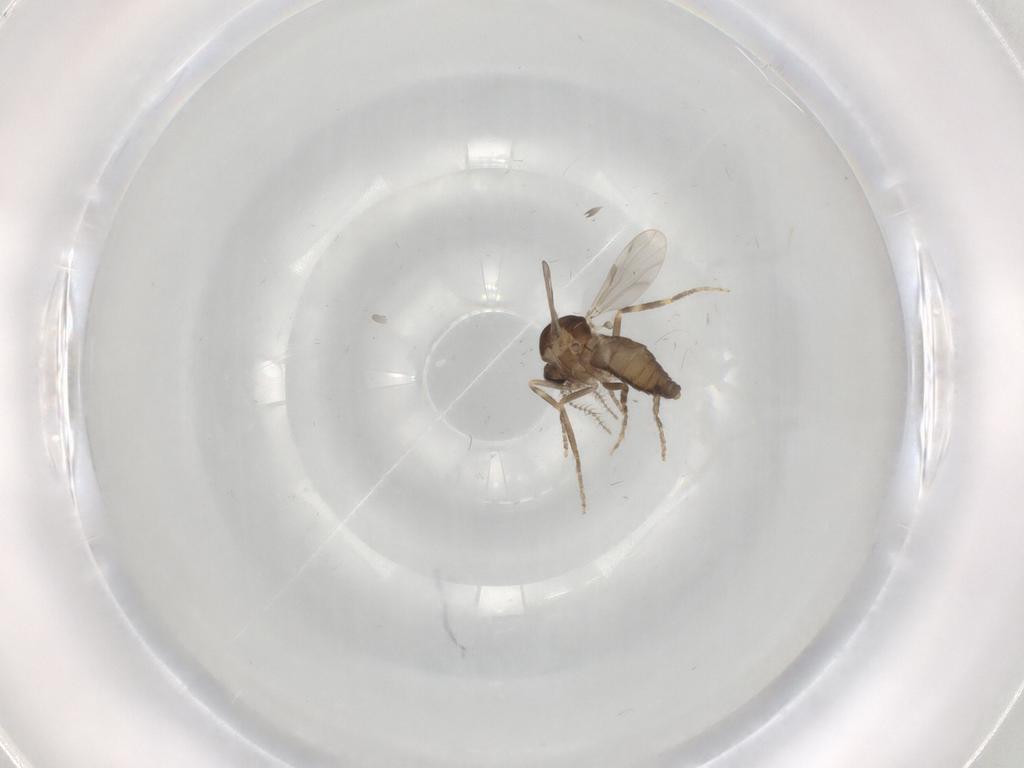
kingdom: Animalia
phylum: Arthropoda
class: Insecta
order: Diptera
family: Ceratopogonidae
